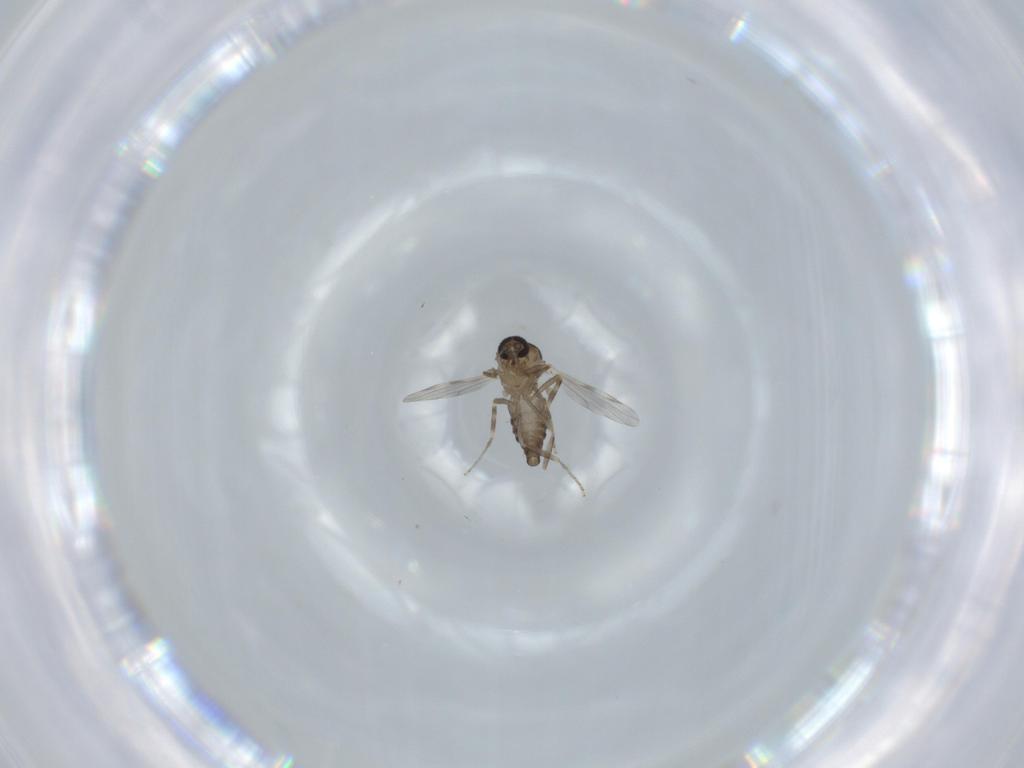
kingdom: Animalia
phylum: Arthropoda
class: Insecta
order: Diptera
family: Ceratopogonidae
